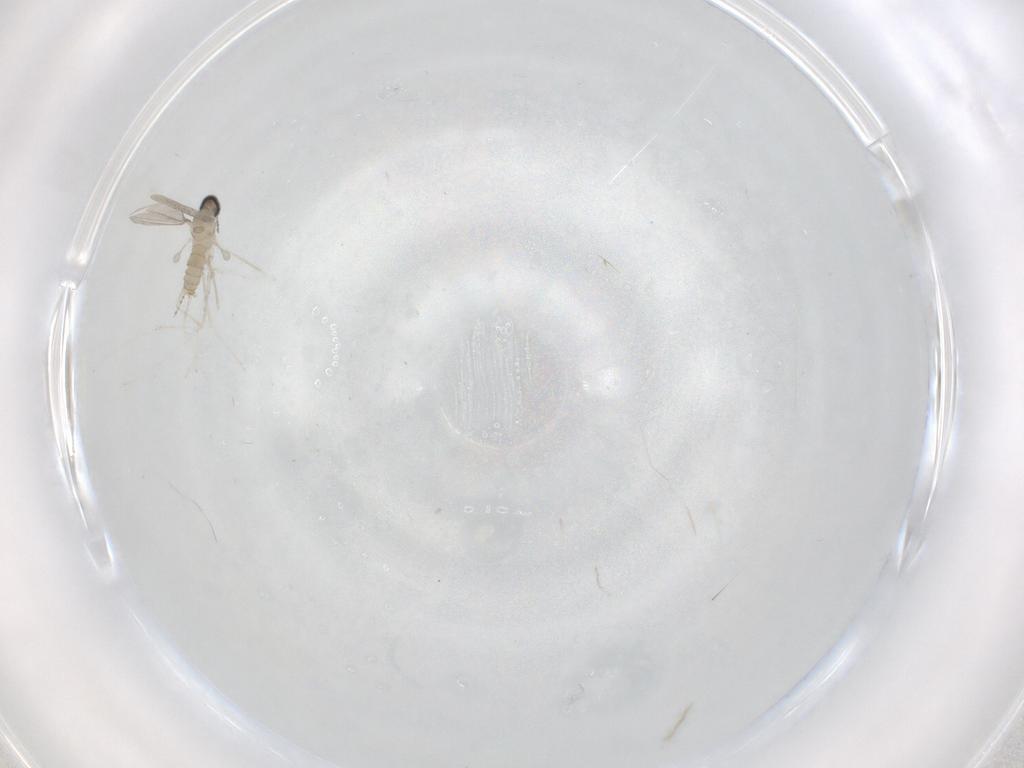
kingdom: Animalia
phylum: Arthropoda
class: Insecta
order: Diptera
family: Cecidomyiidae
